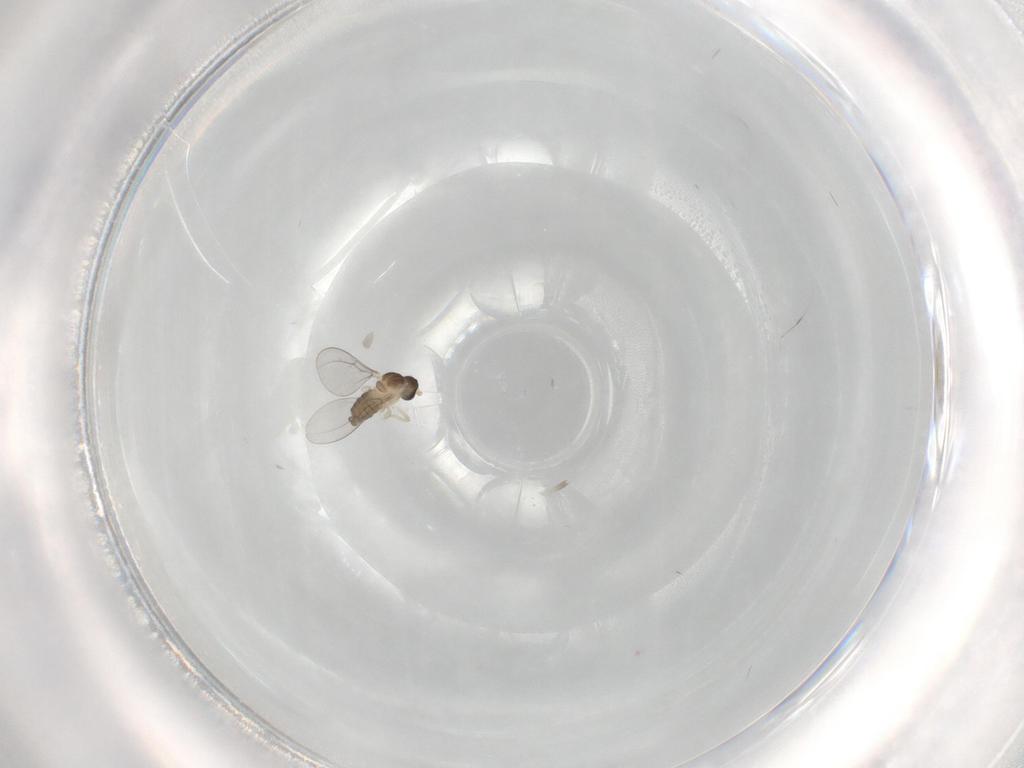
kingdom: Animalia
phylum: Arthropoda
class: Insecta
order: Diptera
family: Cecidomyiidae
